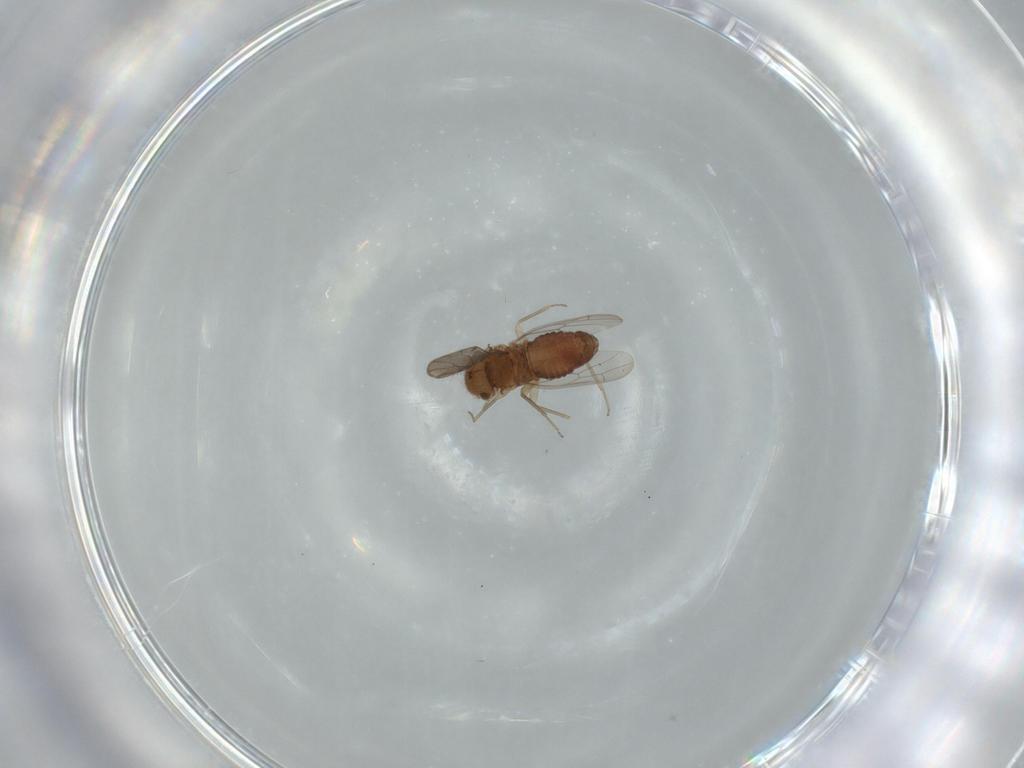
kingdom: Animalia
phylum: Arthropoda
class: Insecta
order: Psocodea
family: Ectopsocidae
